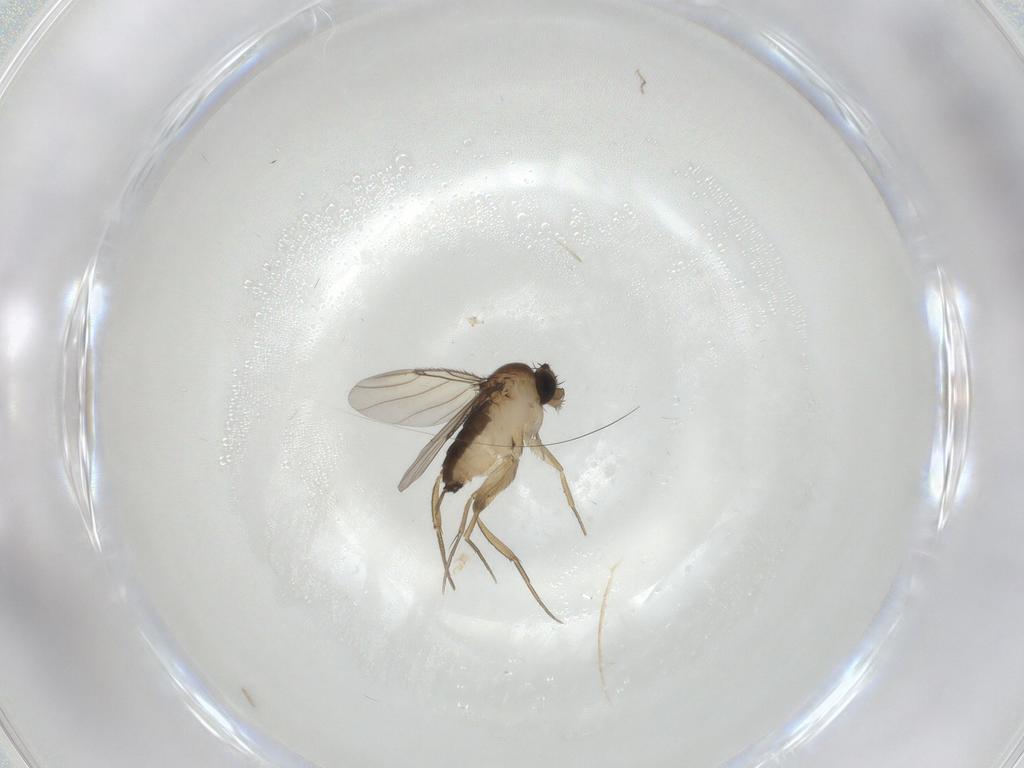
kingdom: Animalia
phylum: Arthropoda
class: Insecta
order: Diptera
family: Phoridae
